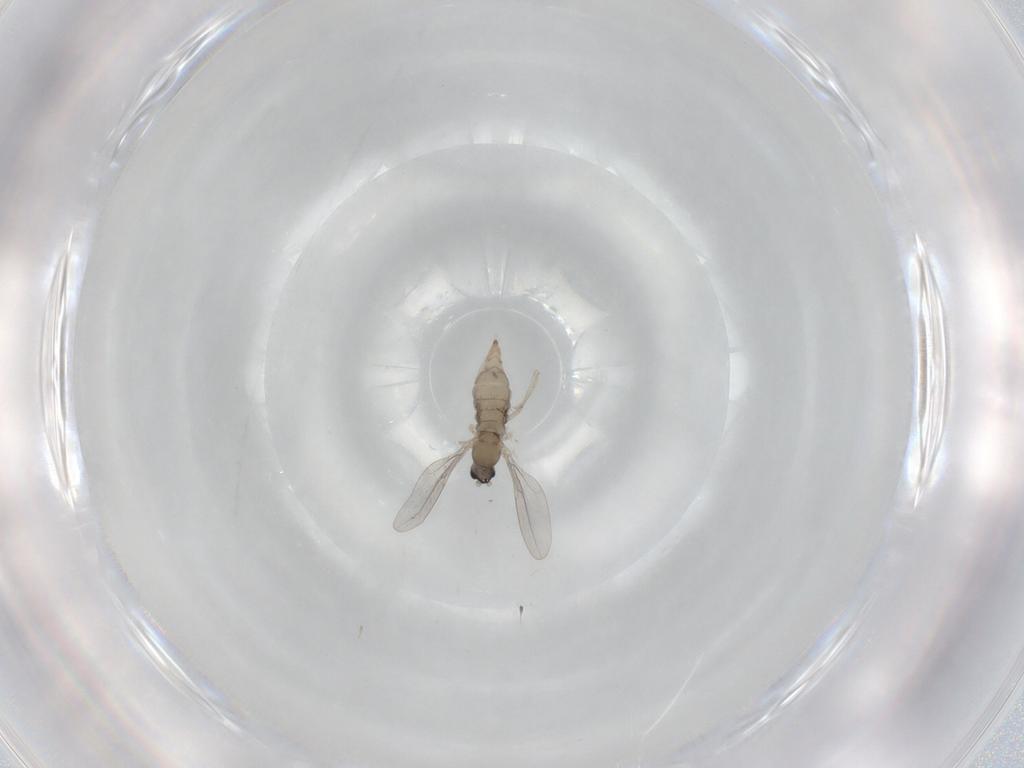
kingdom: Animalia
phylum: Arthropoda
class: Insecta
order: Diptera
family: Cecidomyiidae
